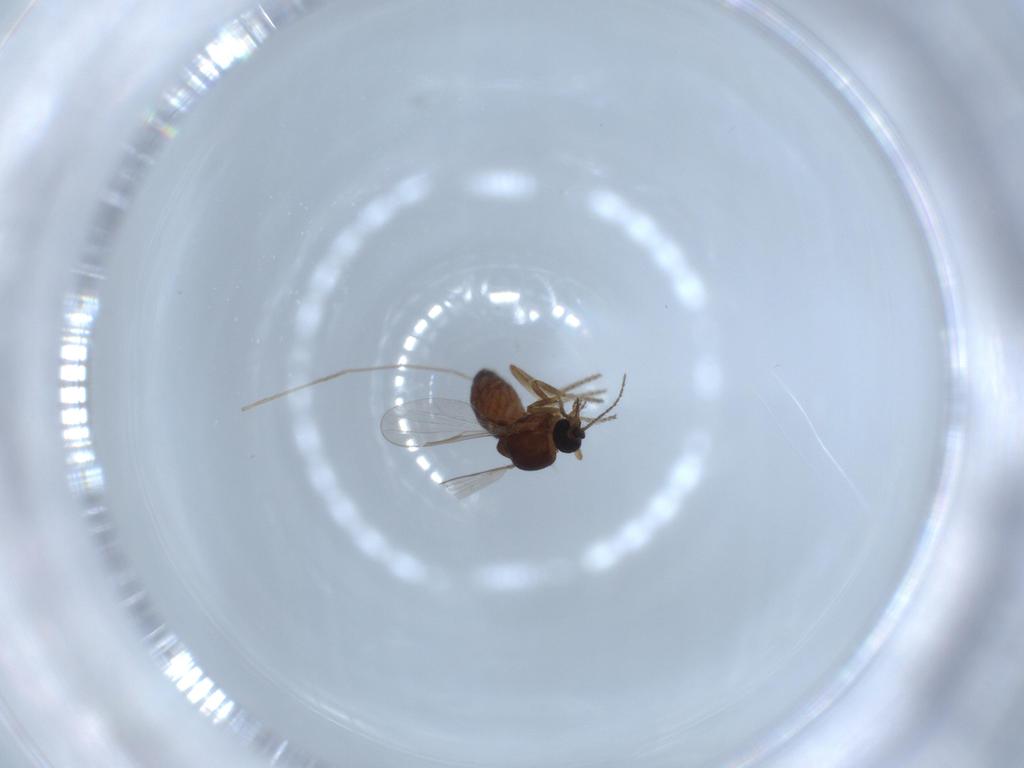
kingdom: Animalia
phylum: Arthropoda
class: Insecta
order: Diptera
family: Ceratopogonidae
